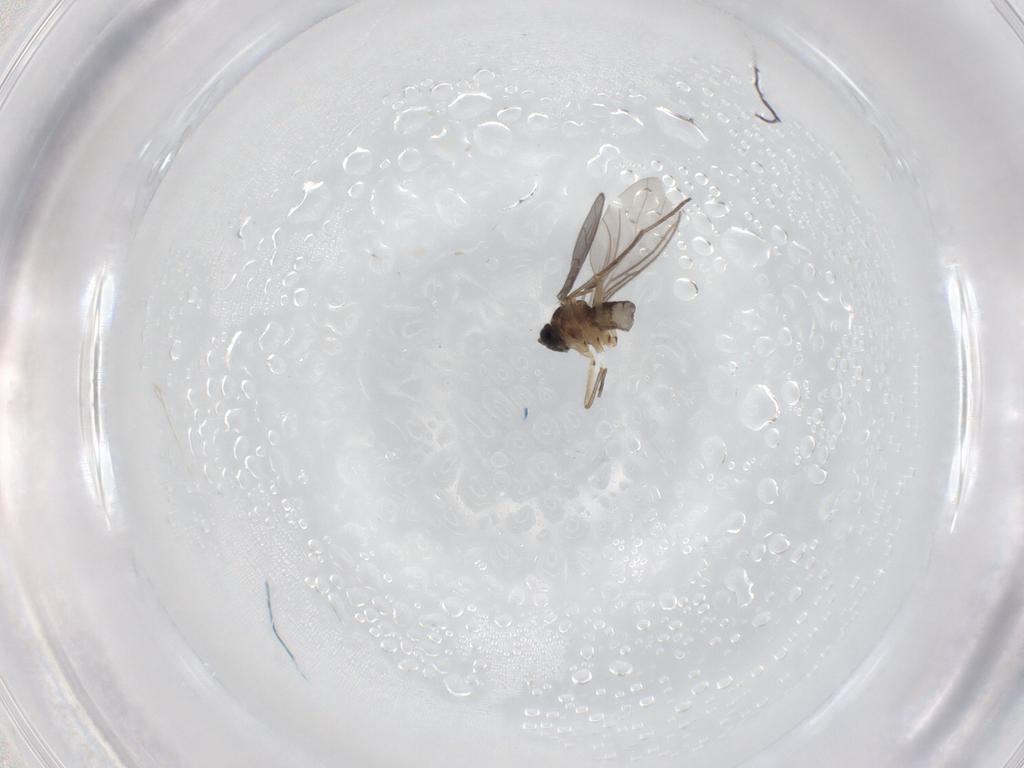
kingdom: Animalia
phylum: Arthropoda
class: Insecta
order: Diptera
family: Sciaridae
